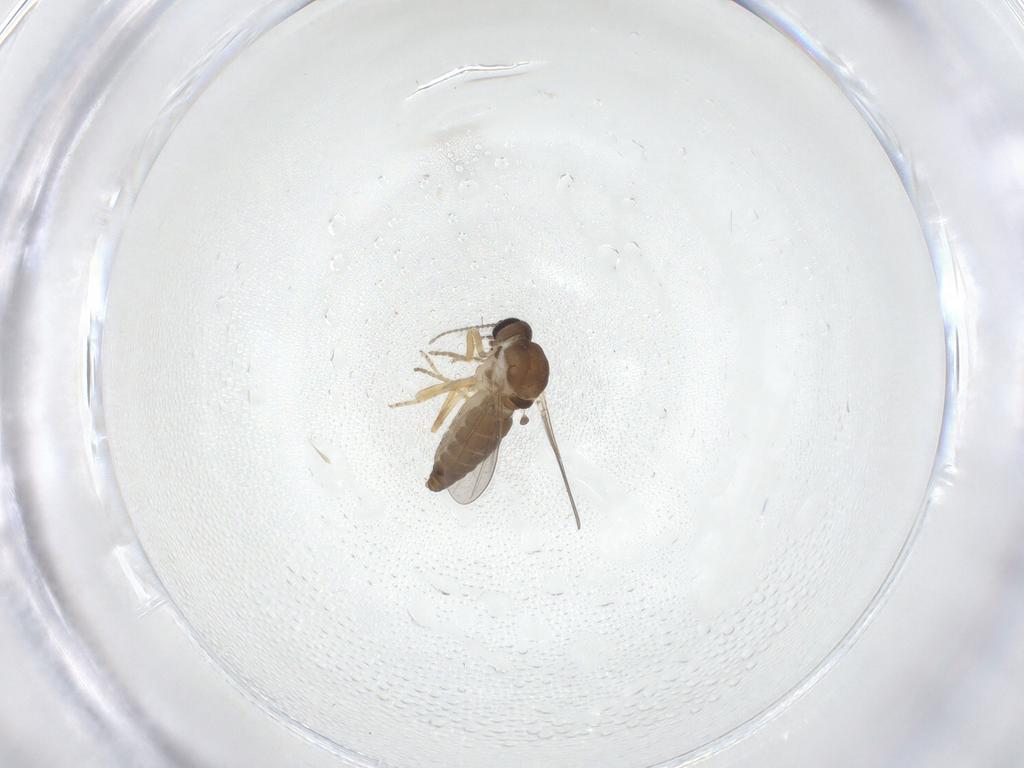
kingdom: Animalia
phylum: Arthropoda
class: Insecta
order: Diptera
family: Ceratopogonidae
